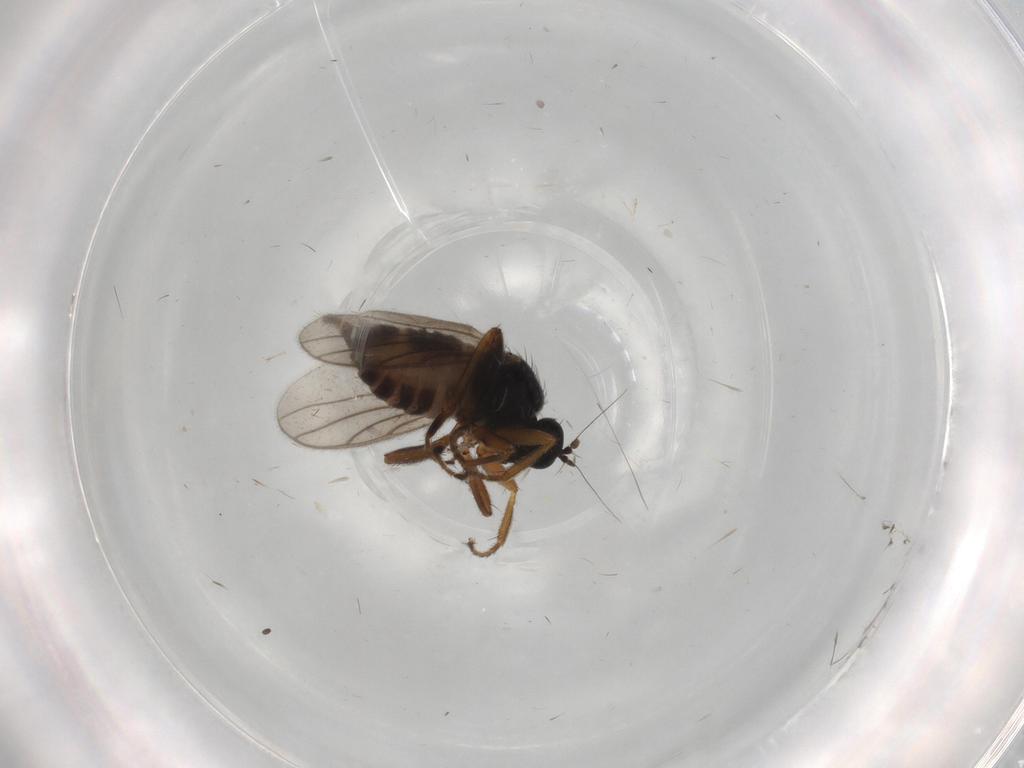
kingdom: Animalia
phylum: Arthropoda
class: Insecta
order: Diptera
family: Hybotidae
